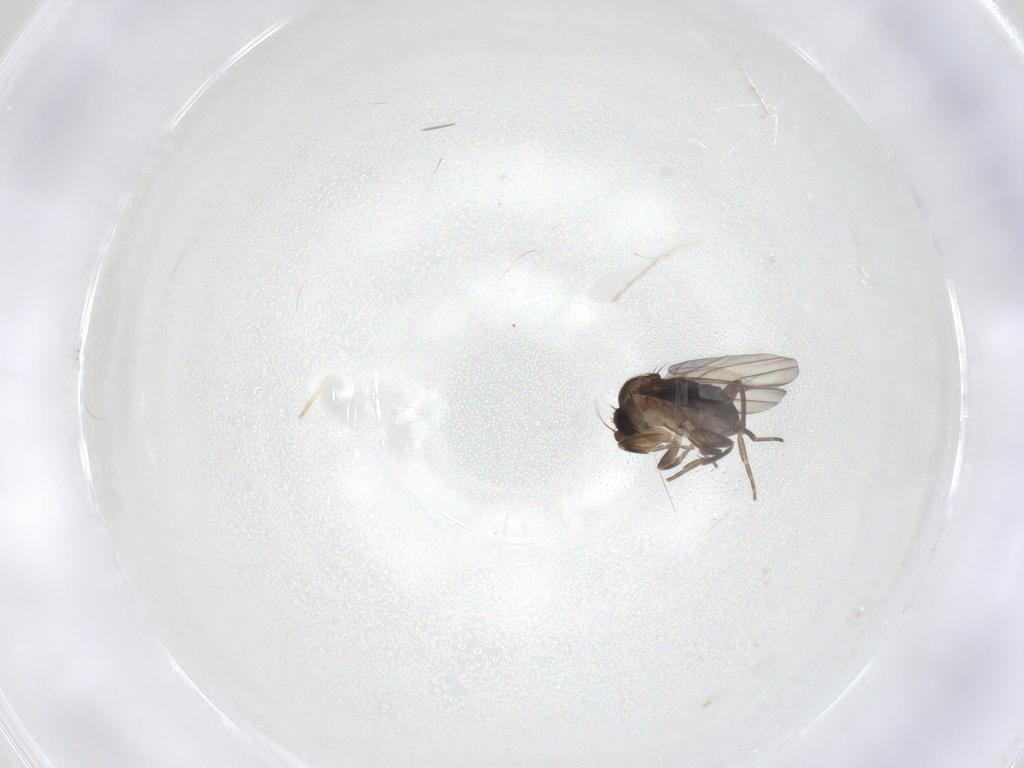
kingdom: Animalia
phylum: Arthropoda
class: Insecta
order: Diptera
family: Phoridae
